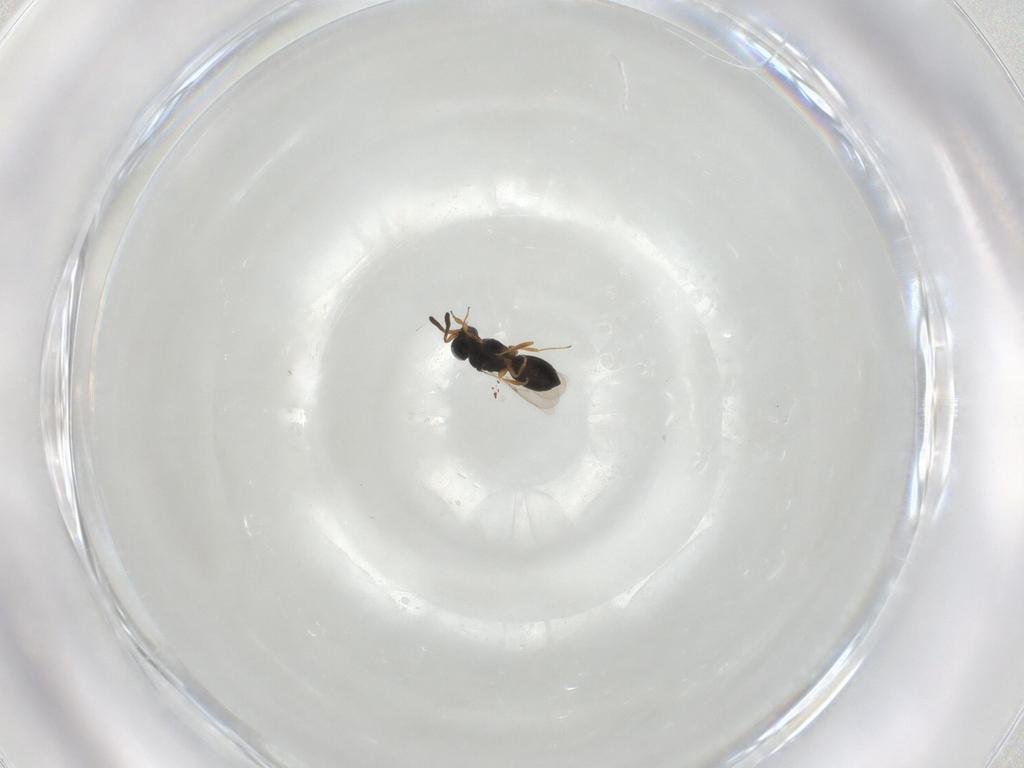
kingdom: Animalia
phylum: Arthropoda
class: Insecta
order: Hymenoptera
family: Scelionidae
